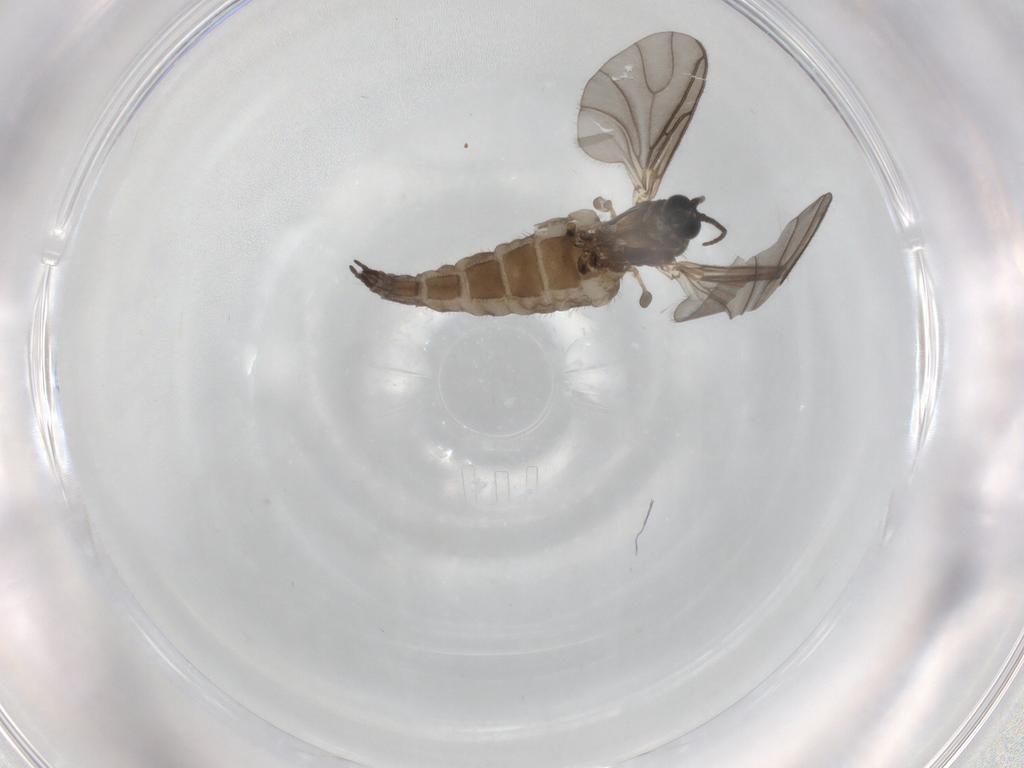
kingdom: Animalia
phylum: Arthropoda
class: Insecta
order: Diptera
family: Sciaridae
